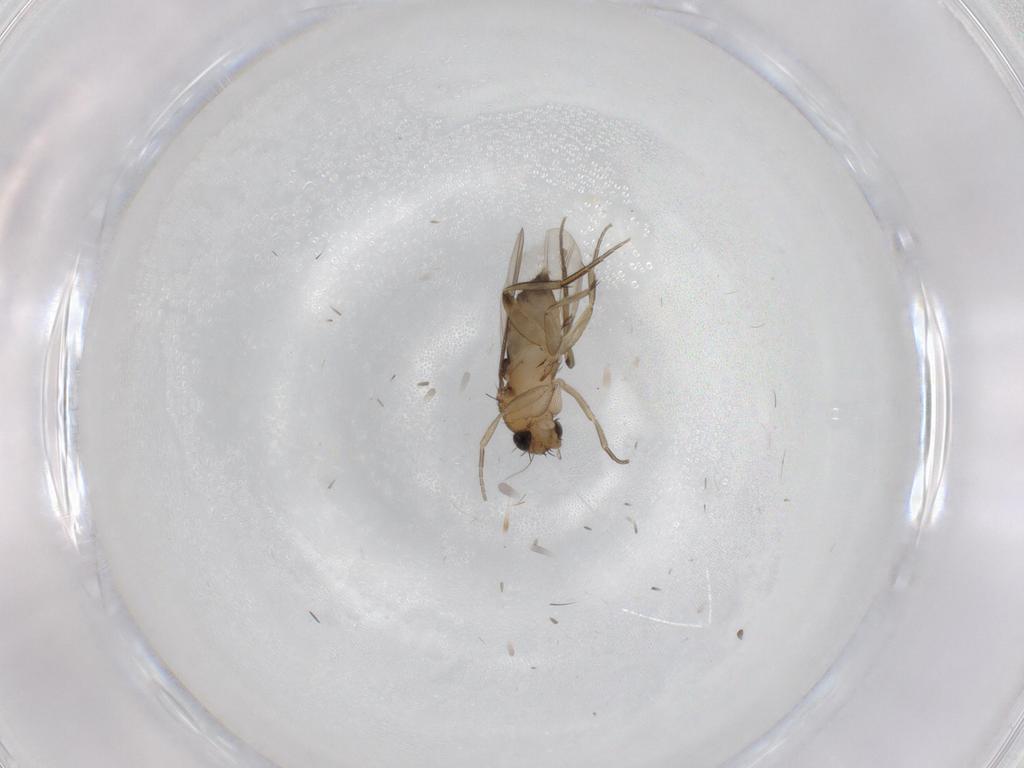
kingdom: Animalia
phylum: Arthropoda
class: Insecta
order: Diptera
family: Phoridae
